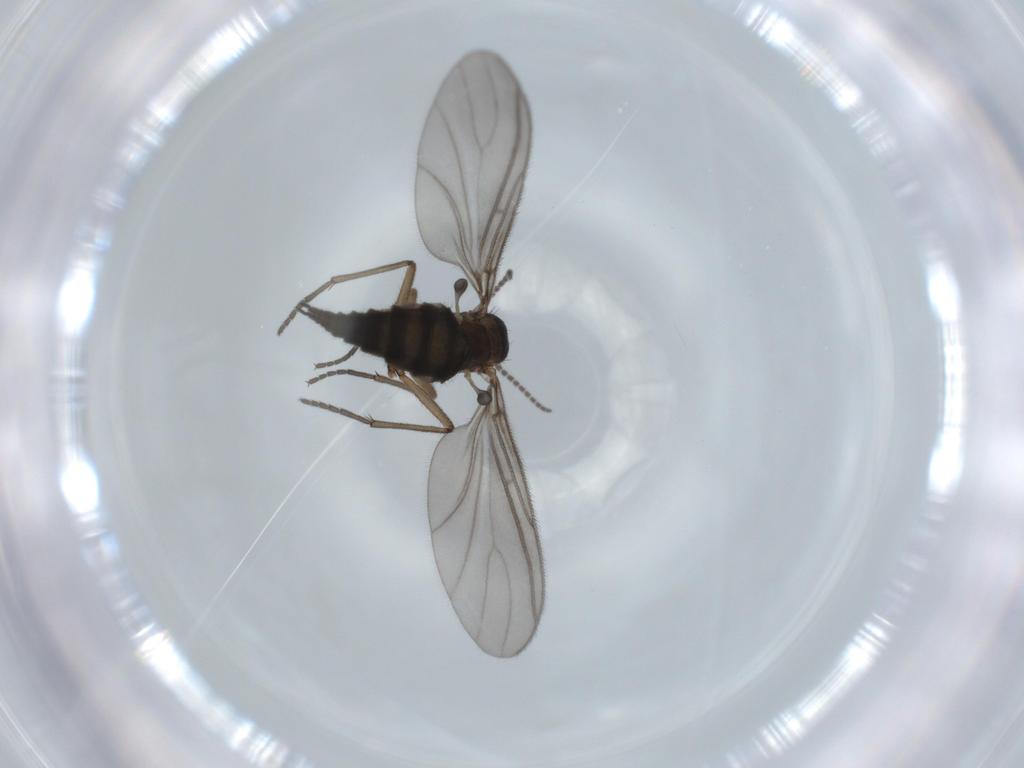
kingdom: Animalia
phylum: Arthropoda
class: Insecta
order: Diptera
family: Sciaridae
